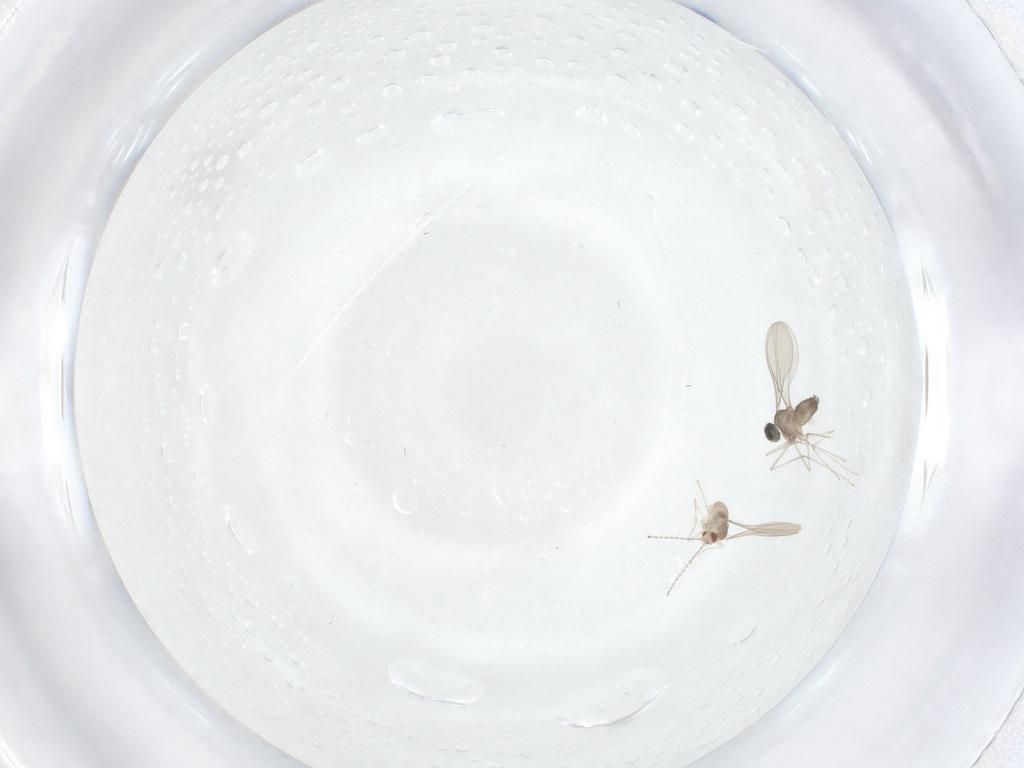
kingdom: Animalia
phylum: Arthropoda
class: Insecta
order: Diptera
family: Cecidomyiidae
